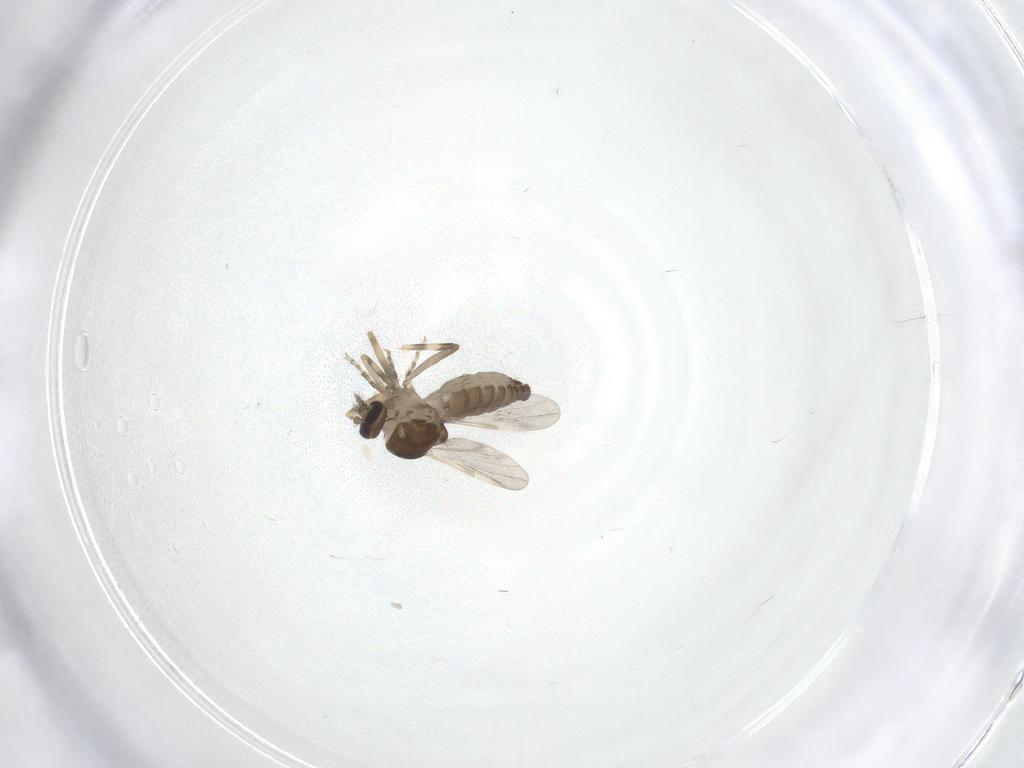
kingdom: Animalia
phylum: Arthropoda
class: Insecta
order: Diptera
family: Ceratopogonidae
